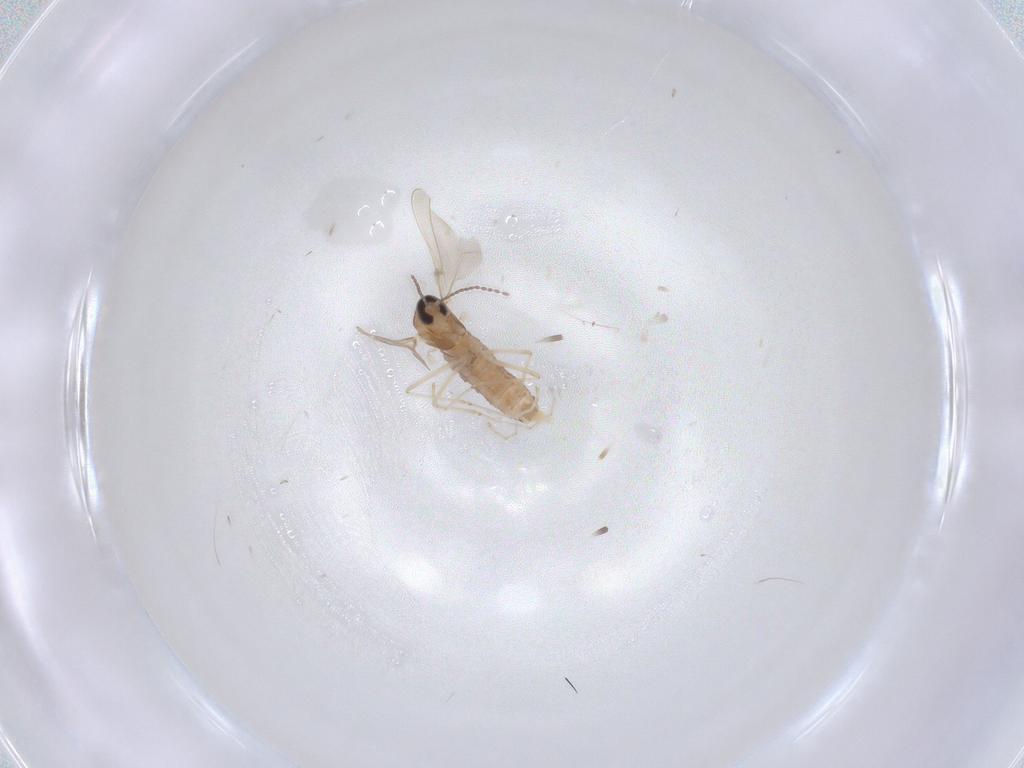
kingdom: Animalia
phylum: Arthropoda
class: Insecta
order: Diptera
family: Cecidomyiidae
